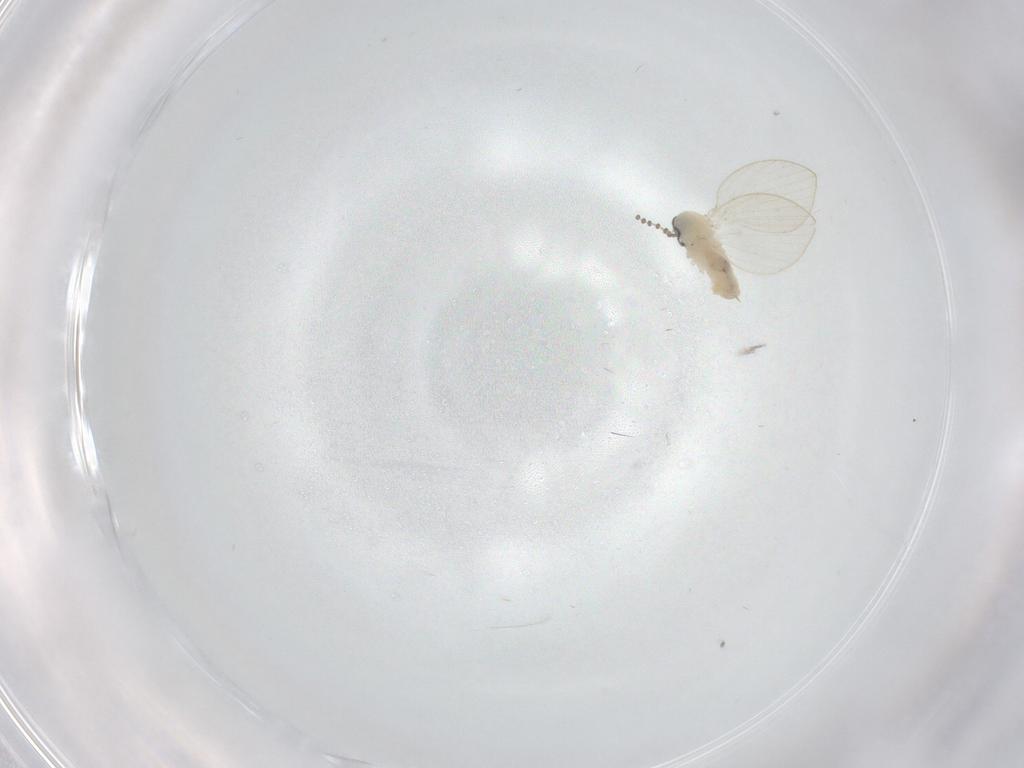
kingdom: Animalia
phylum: Arthropoda
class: Insecta
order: Diptera
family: Psychodidae
